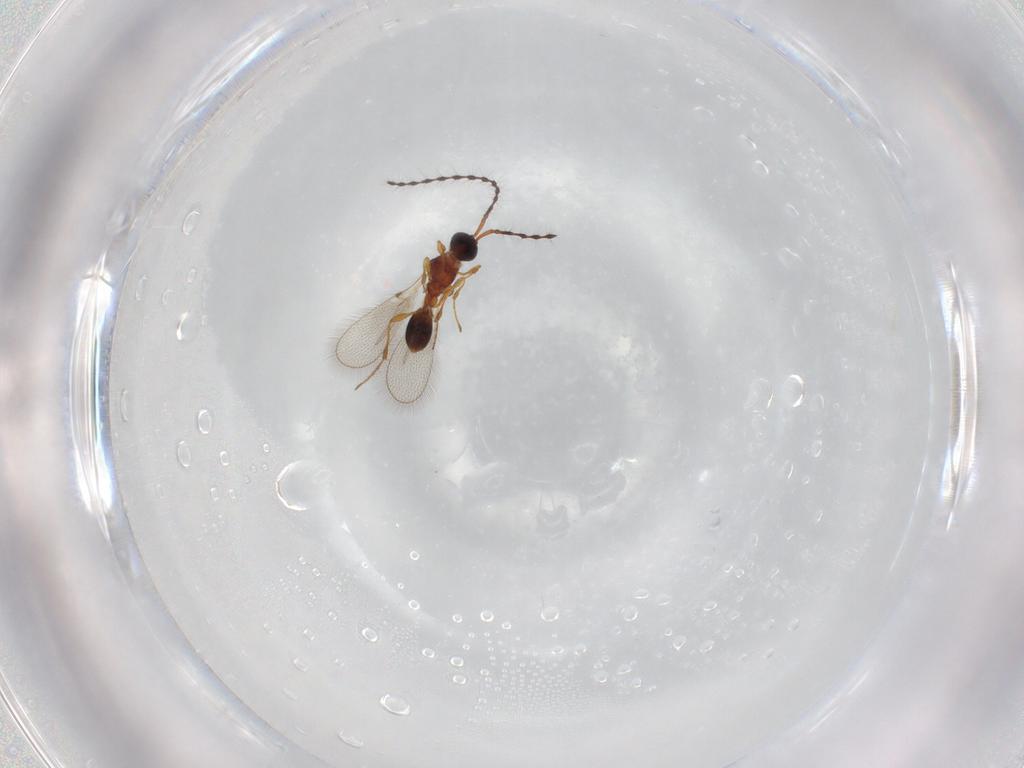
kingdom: Animalia
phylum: Arthropoda
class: Insecta
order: Hymenoptera
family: Diapriidae
